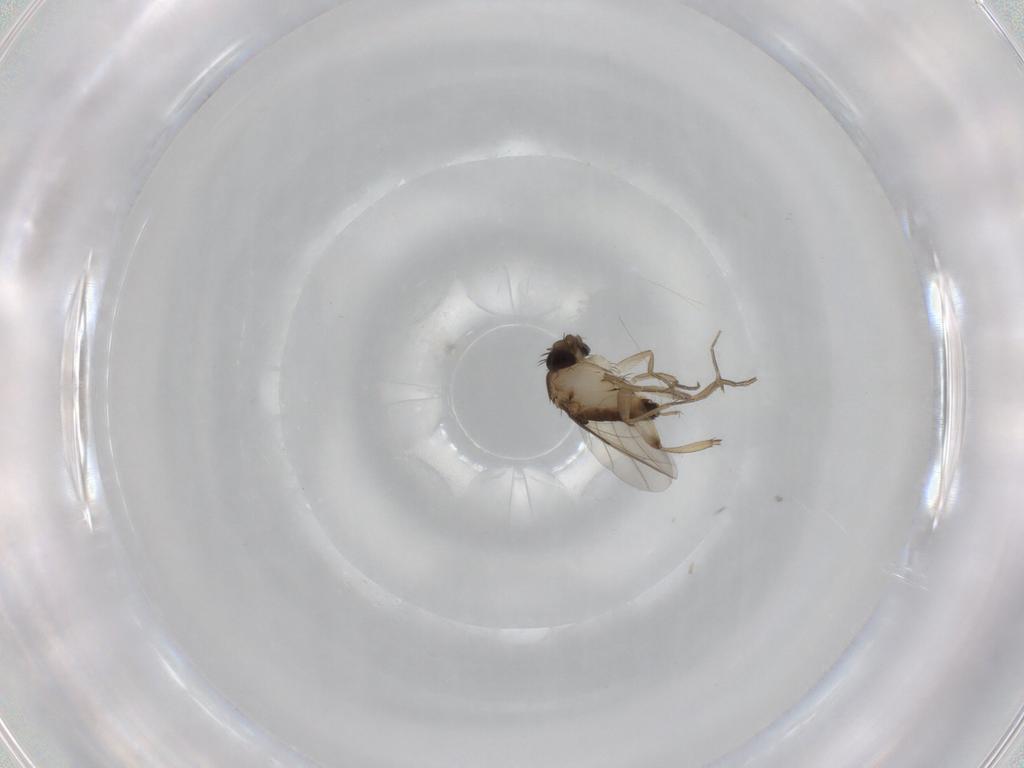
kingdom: Animalia
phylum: Arthropoda
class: Insecta
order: Diptera
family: Phoridae
